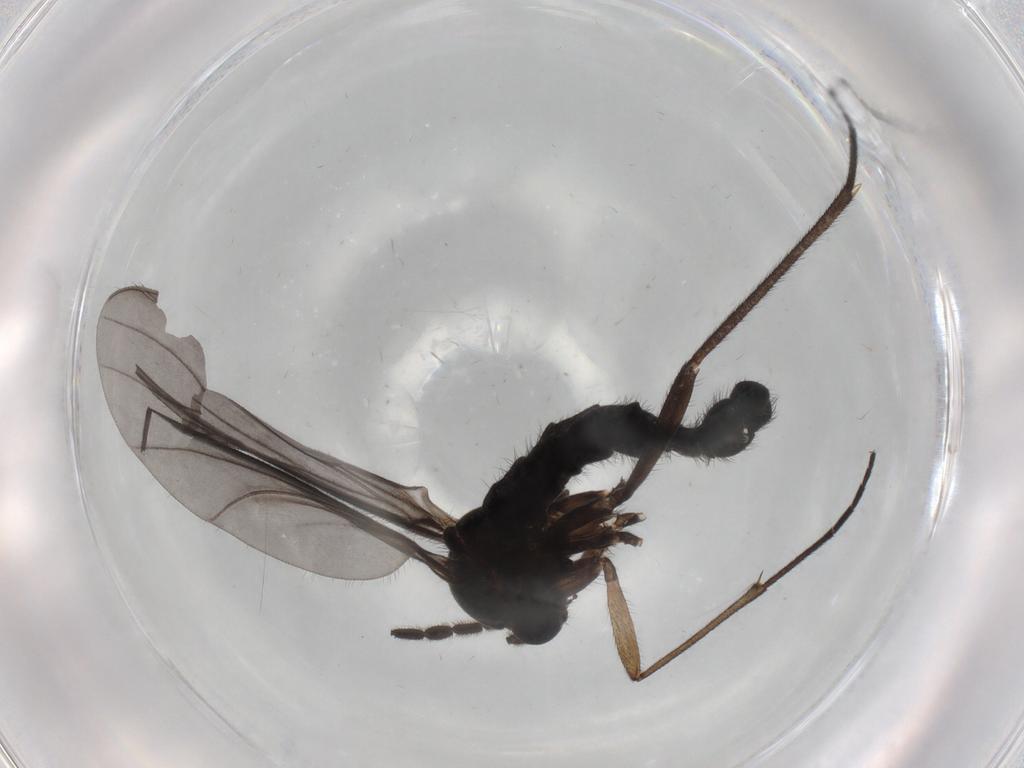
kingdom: Animalia
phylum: Arthropoda
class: Insecta
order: Diptera
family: Sciaridae
